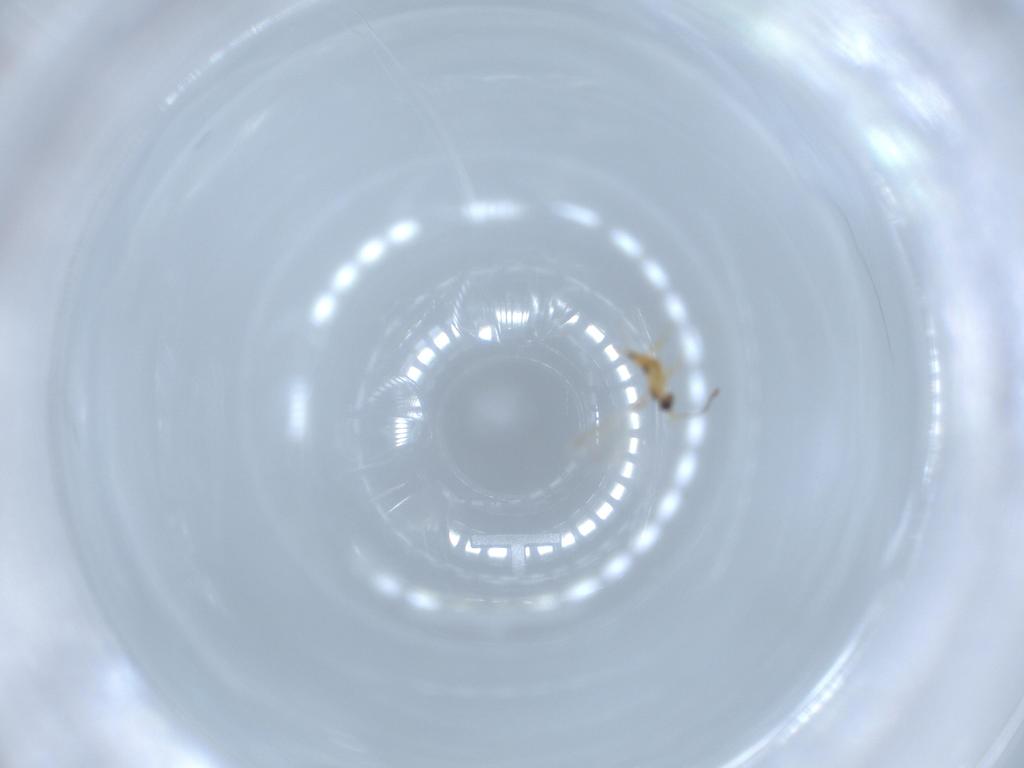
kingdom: Animalia
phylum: Arthropoda
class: Insecta
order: Hymenoptera
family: Mymaridae
